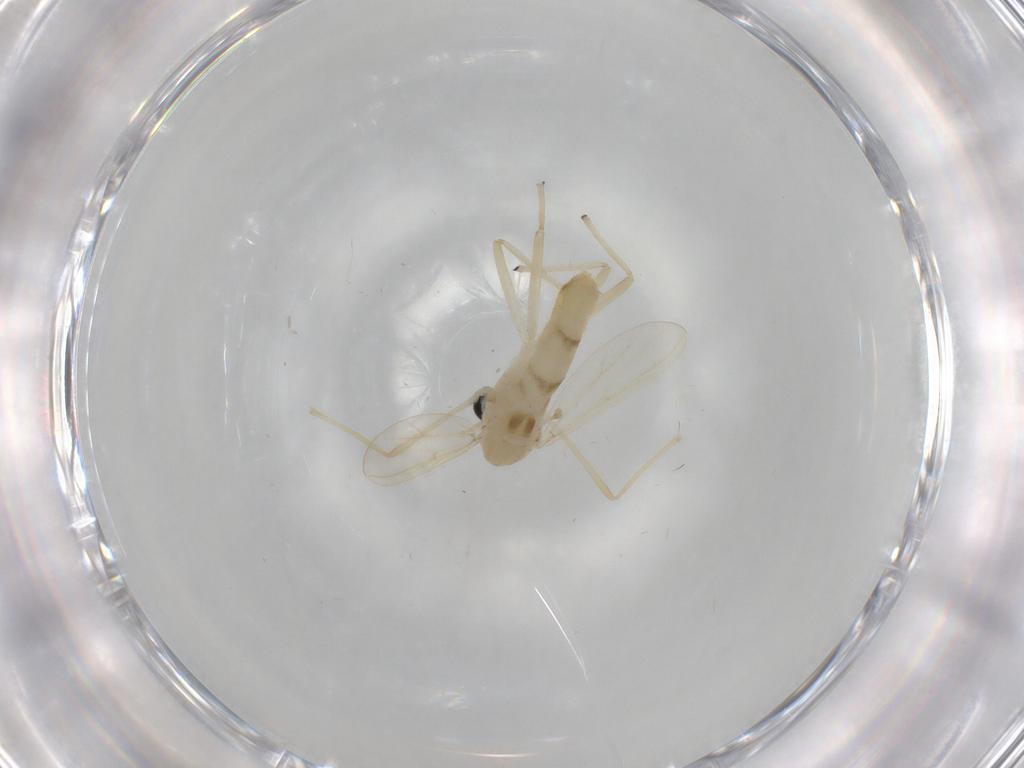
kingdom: Animalia
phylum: Arthropoda
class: Insecta
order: Diptera
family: Chironomidae
